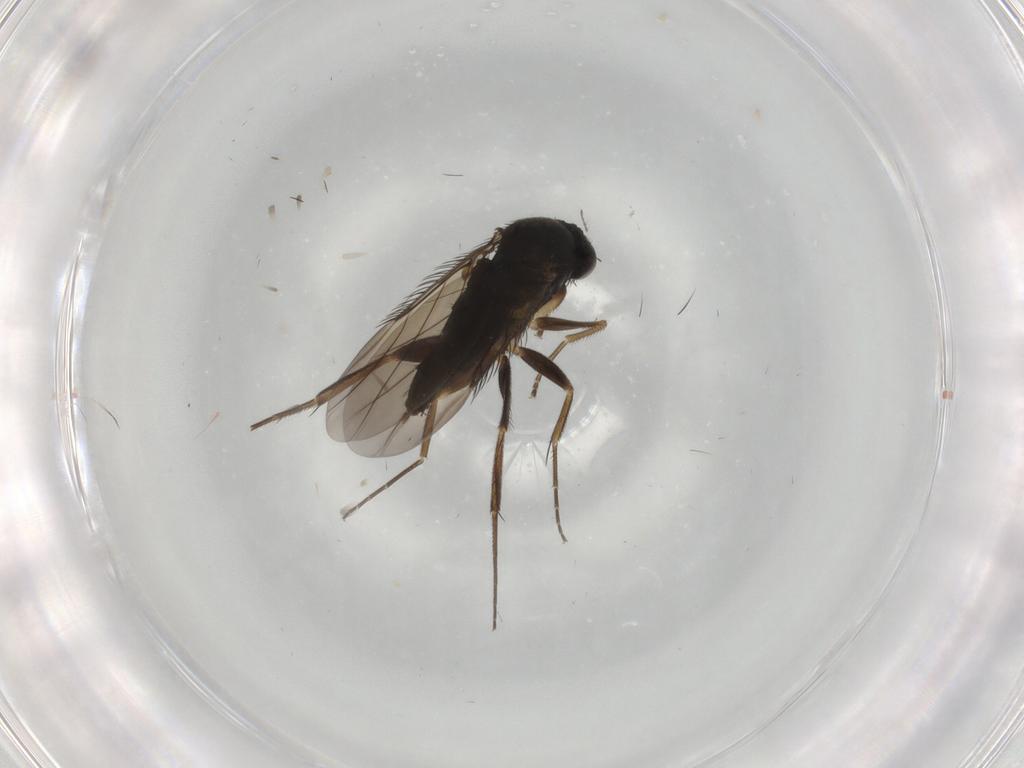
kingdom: Animalia
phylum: Arthropoda
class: Insecta
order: Diptera
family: Phoridae
